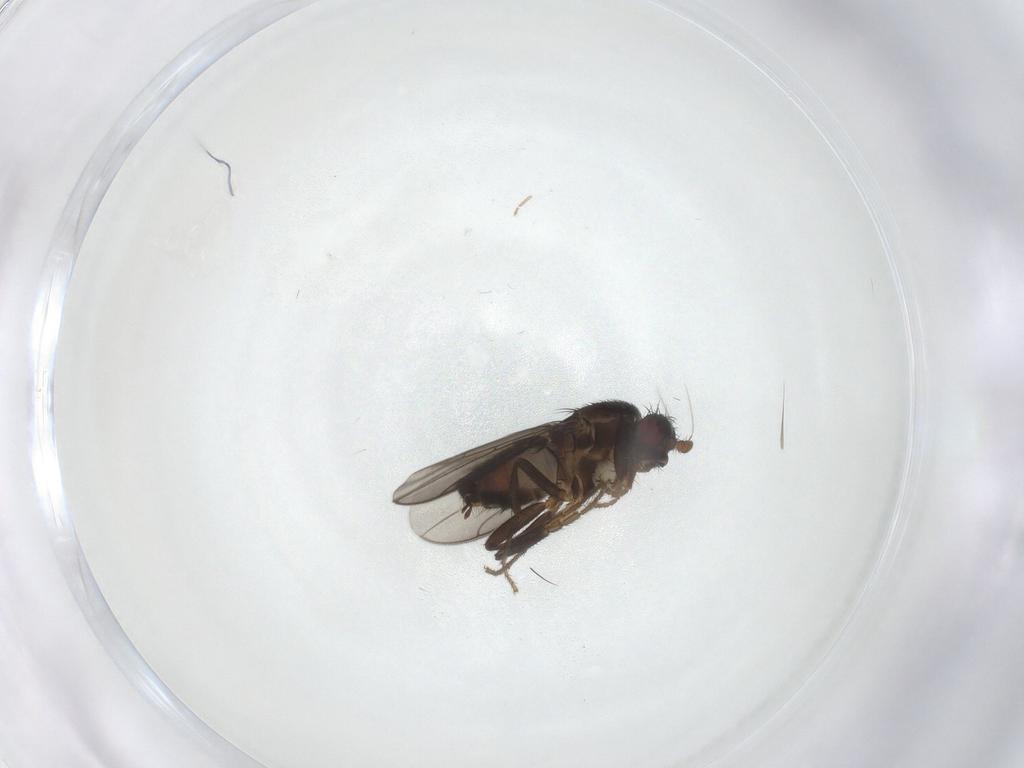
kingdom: Animalia
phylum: Arthropoda
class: Insecta
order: Diptera
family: Sphaeroceridae
